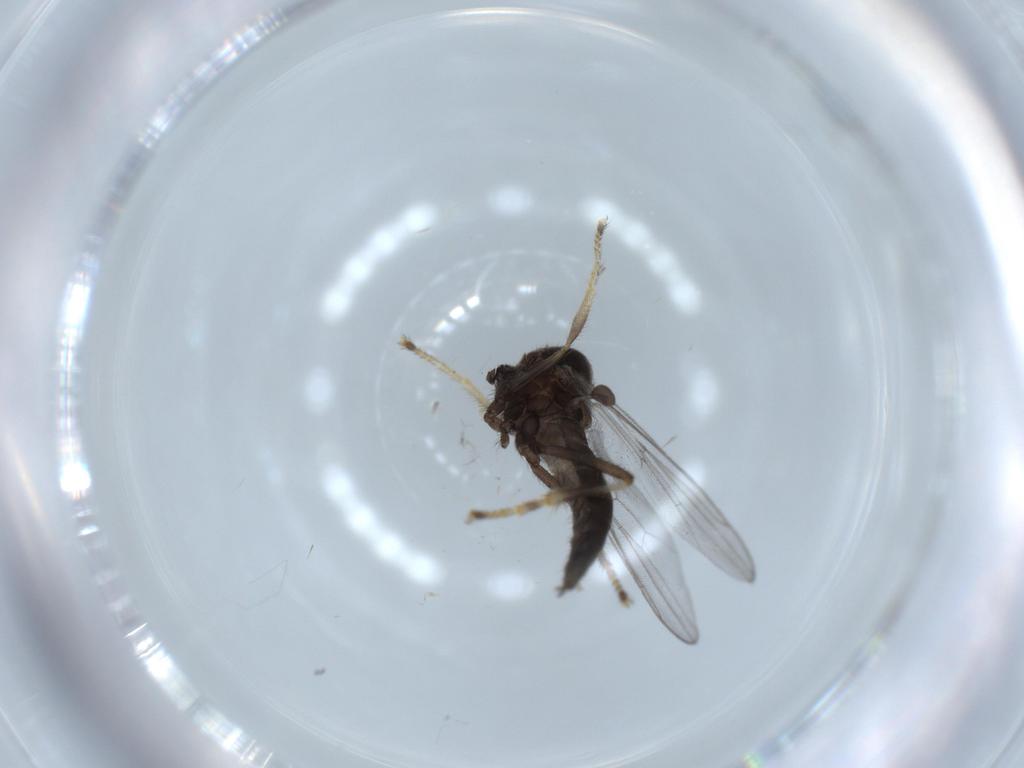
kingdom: Animalia
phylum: Arthropoda
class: Insecta
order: Diptera
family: Hybotidae
